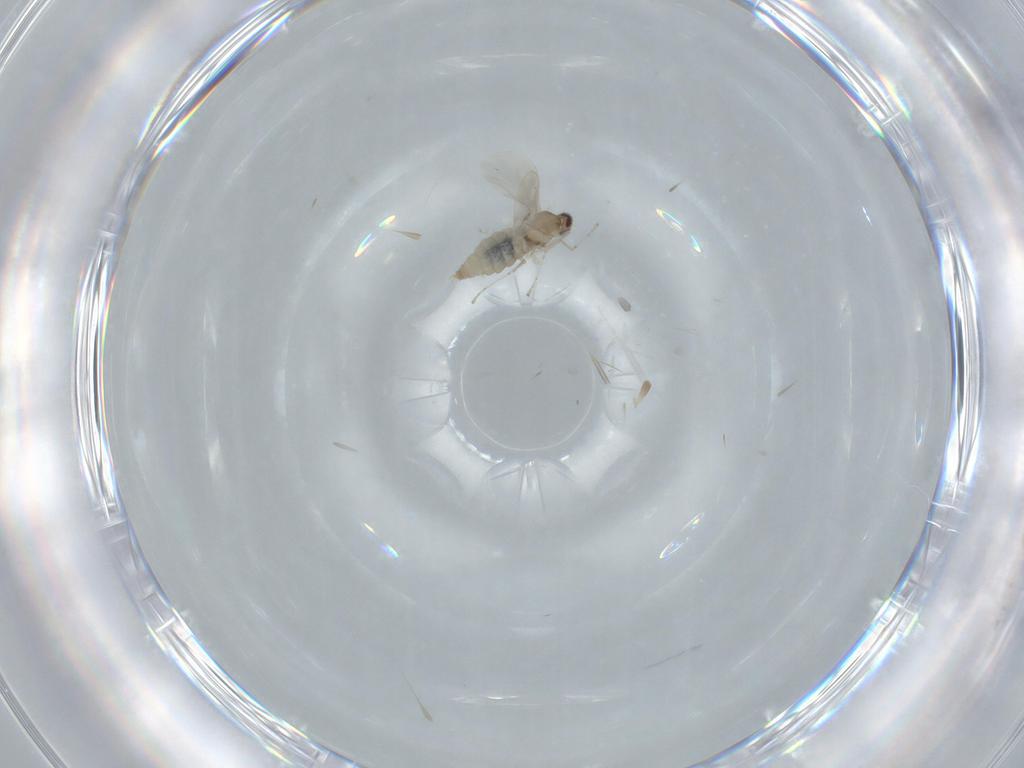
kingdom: Animalia
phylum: Arthropoda
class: Insecta
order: Diptera
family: Cecidomyiidae
